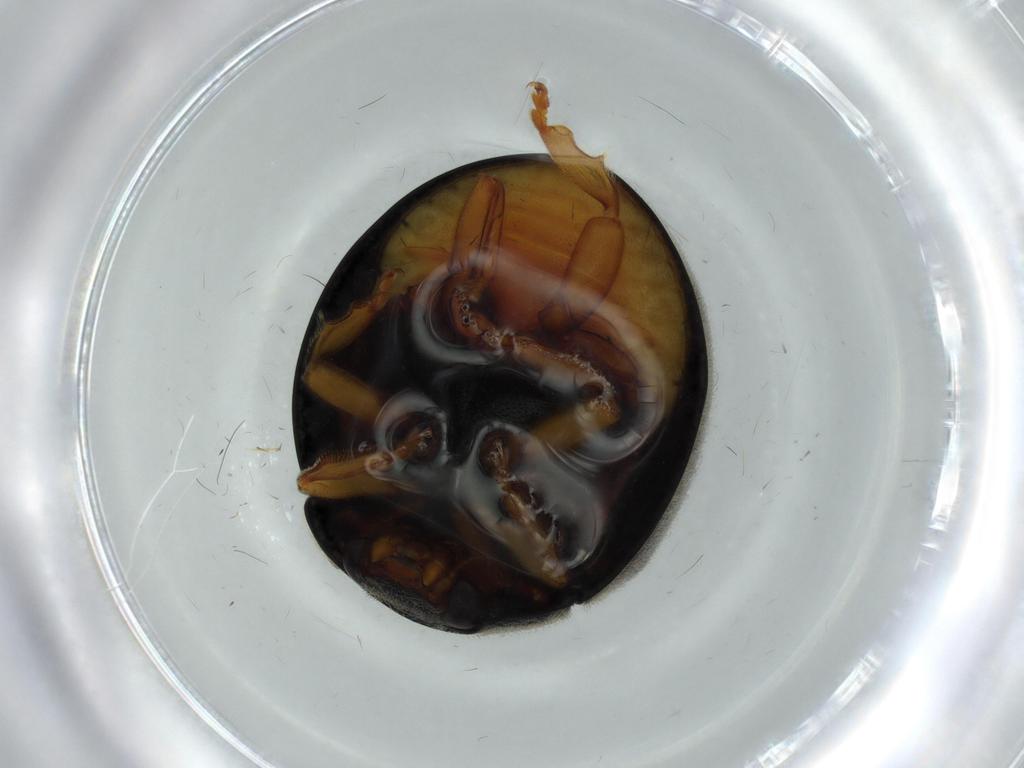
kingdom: Animalia
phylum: Arthropoda
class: Insecta
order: Coleoptera
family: Coccinellidae
